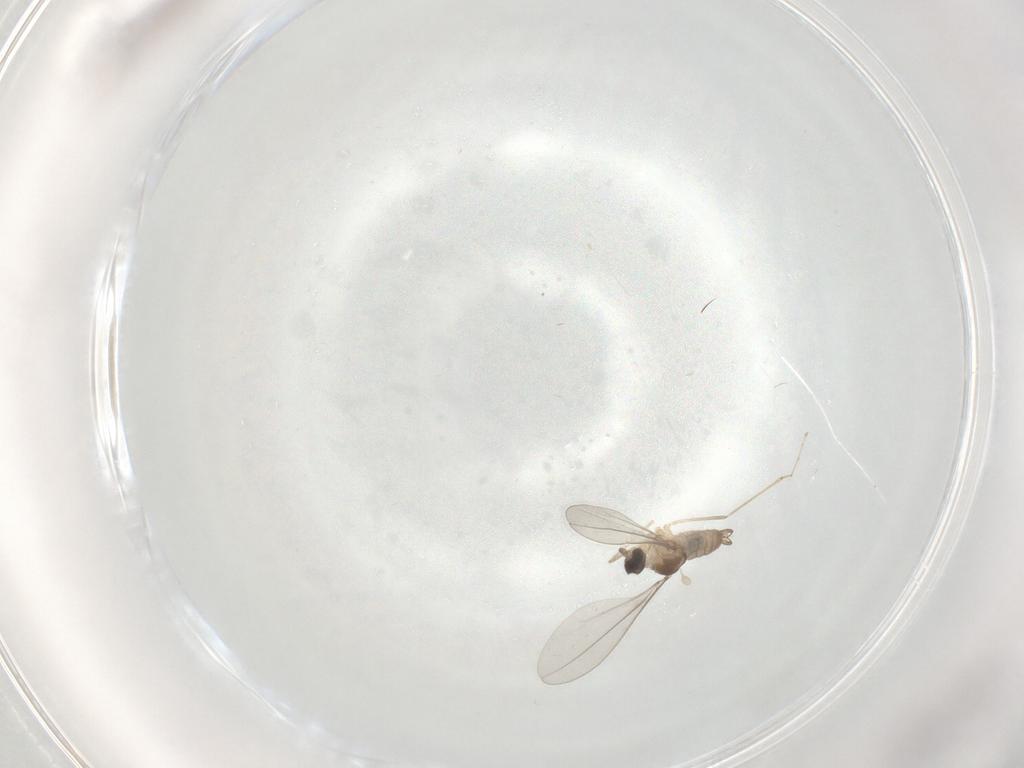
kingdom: Animalia
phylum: Arthropoda
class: Insecta
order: Diptera
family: Cecidomyiidae
